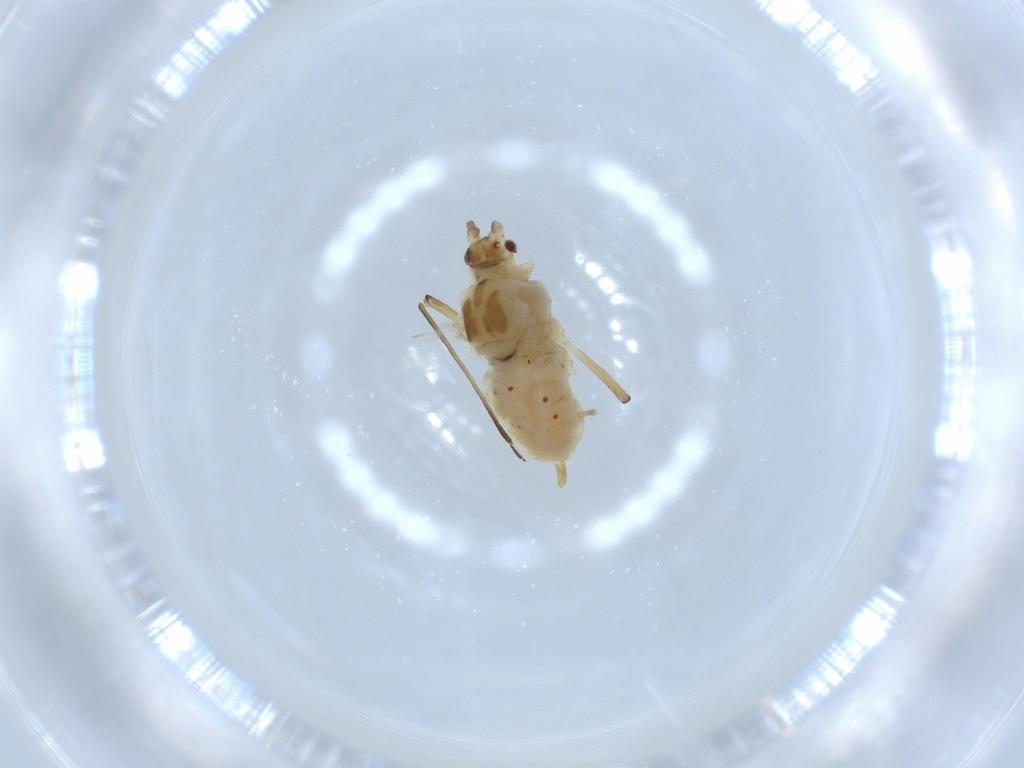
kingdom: Animalia
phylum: Arthropoda
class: Insecta
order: Hemiptera
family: Aphididae
